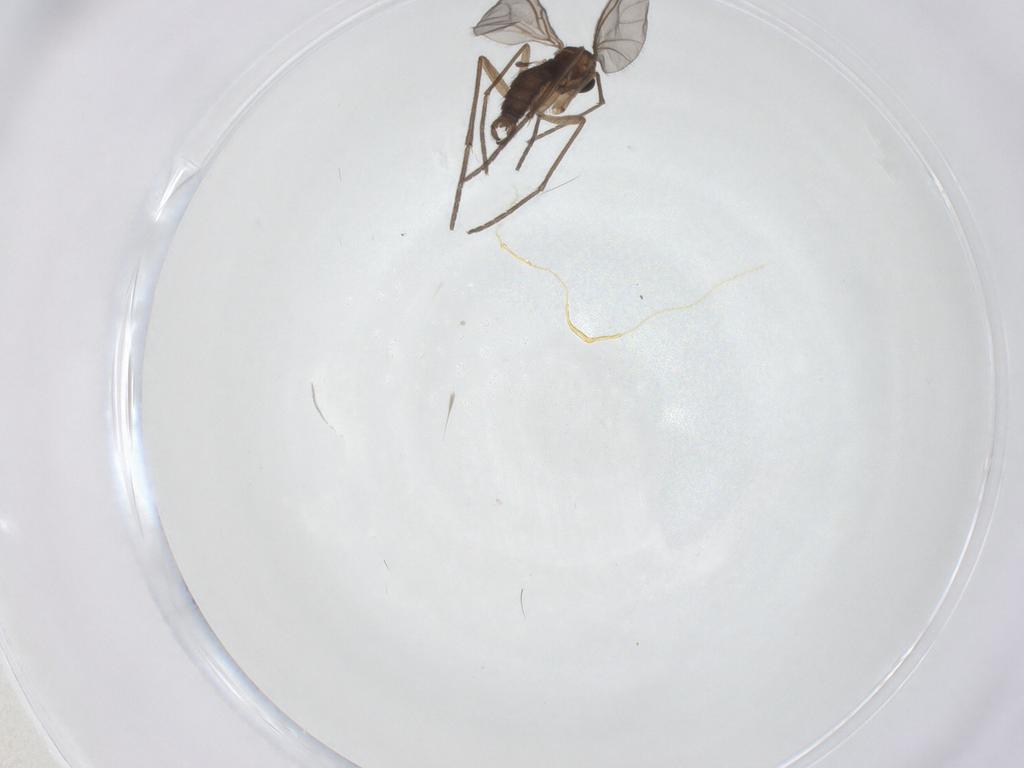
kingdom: Animalia
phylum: Arthropoda
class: Insecta
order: Diptera
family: Sciaridae
